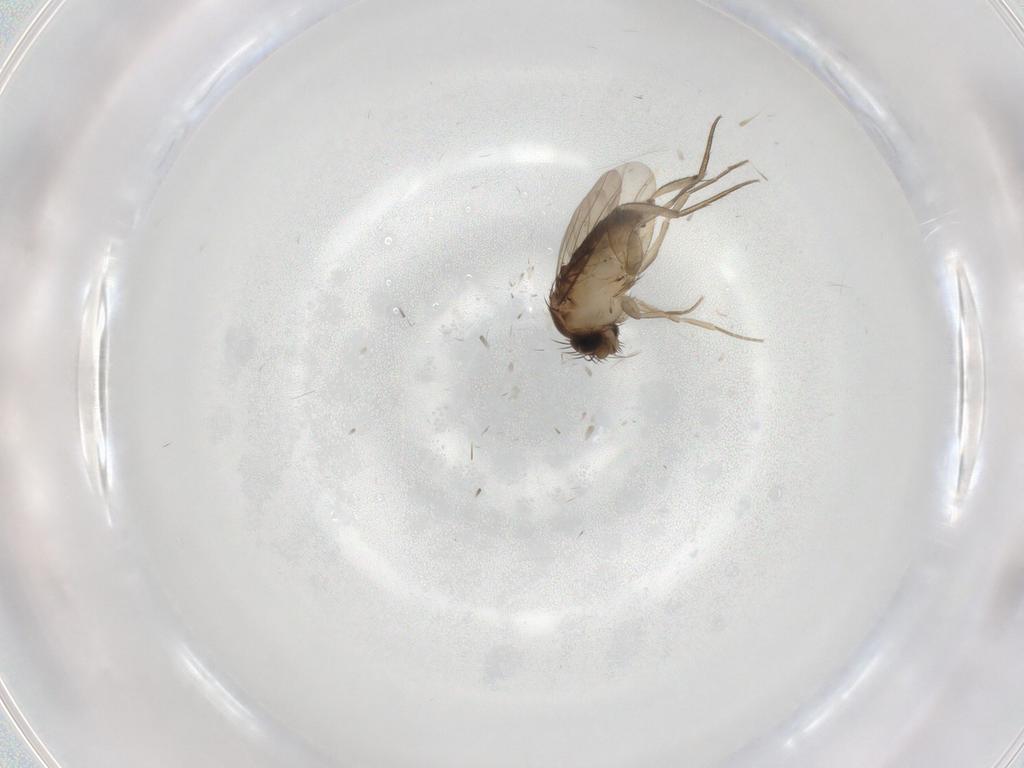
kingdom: Animalia
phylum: Arthropoda
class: Insecta
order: Diptera
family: Phoridae
